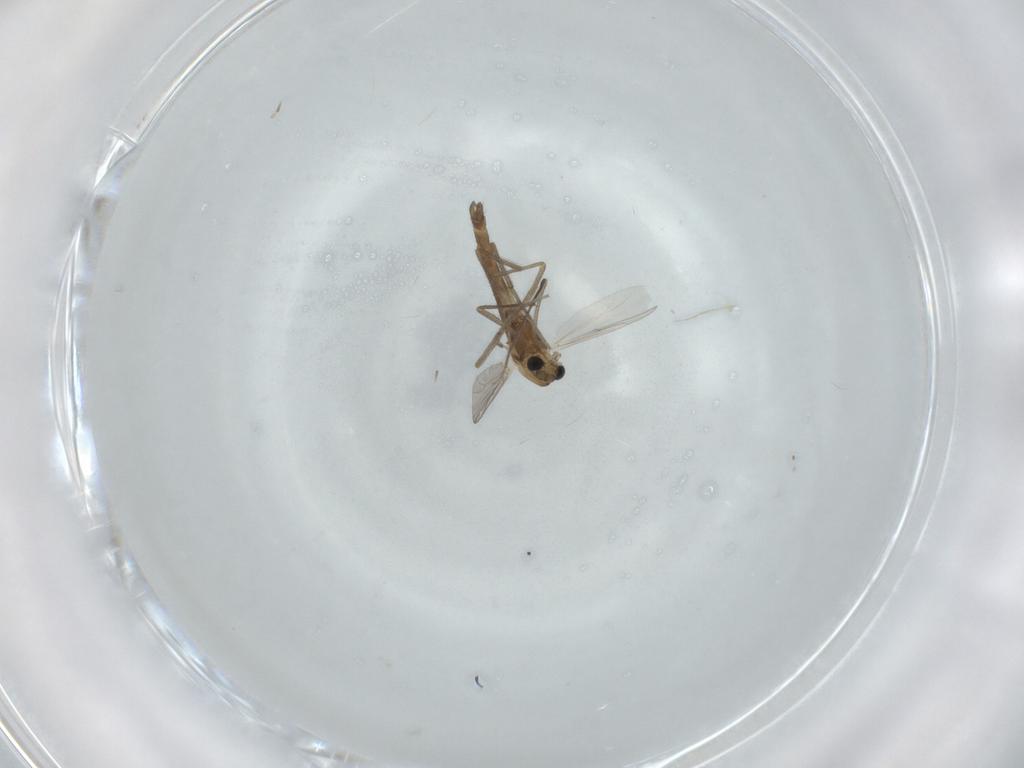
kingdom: Animalia
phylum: Arthropoda
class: Insecta
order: Diptera
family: Chironomidae
